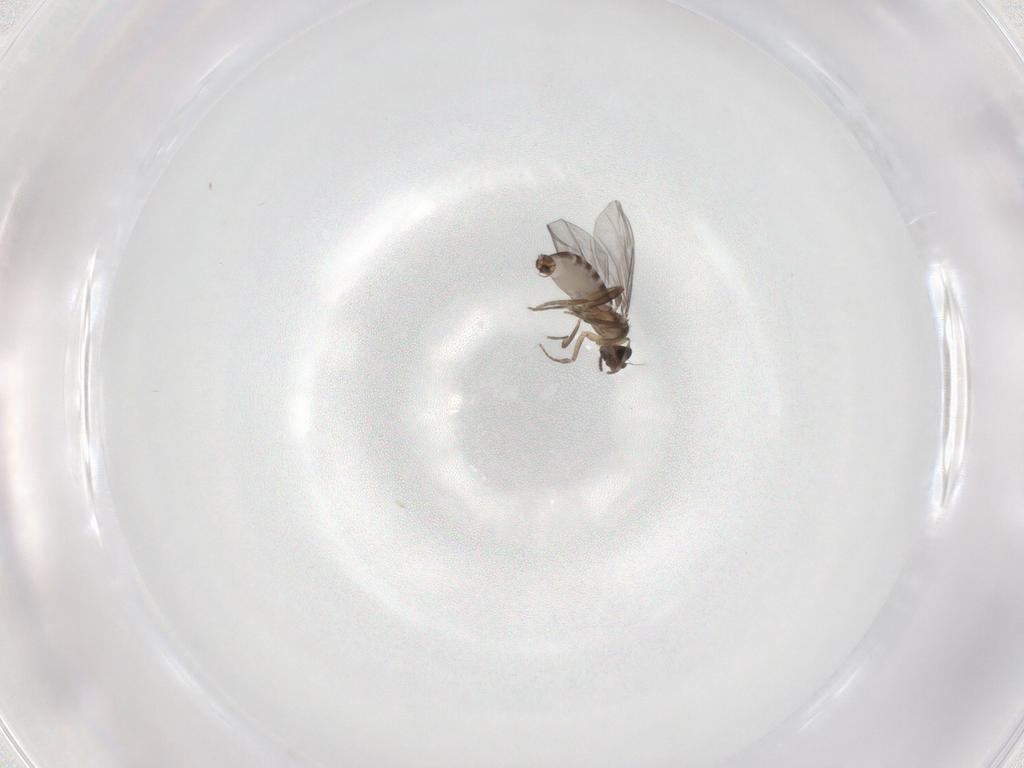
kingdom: Animalia
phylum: Arthropoda
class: Insecta
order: Diptera
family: Psychodidae
